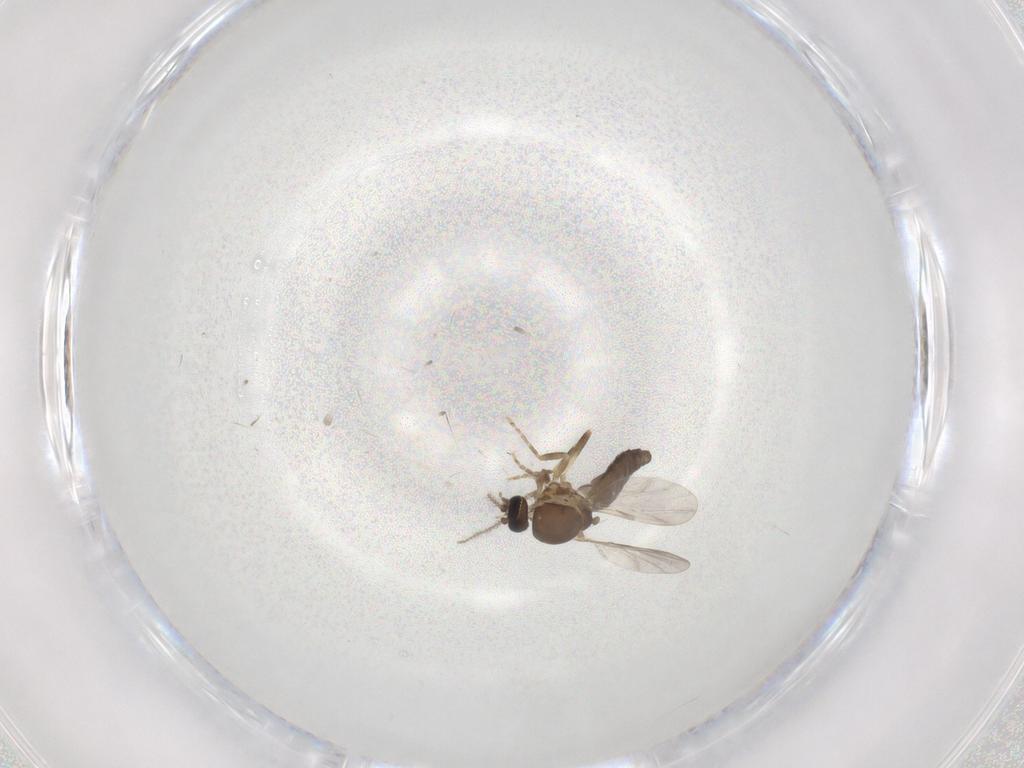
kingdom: Animalia
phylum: Arthropoda
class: Insecta
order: Diptera
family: Ceratopogonidae
